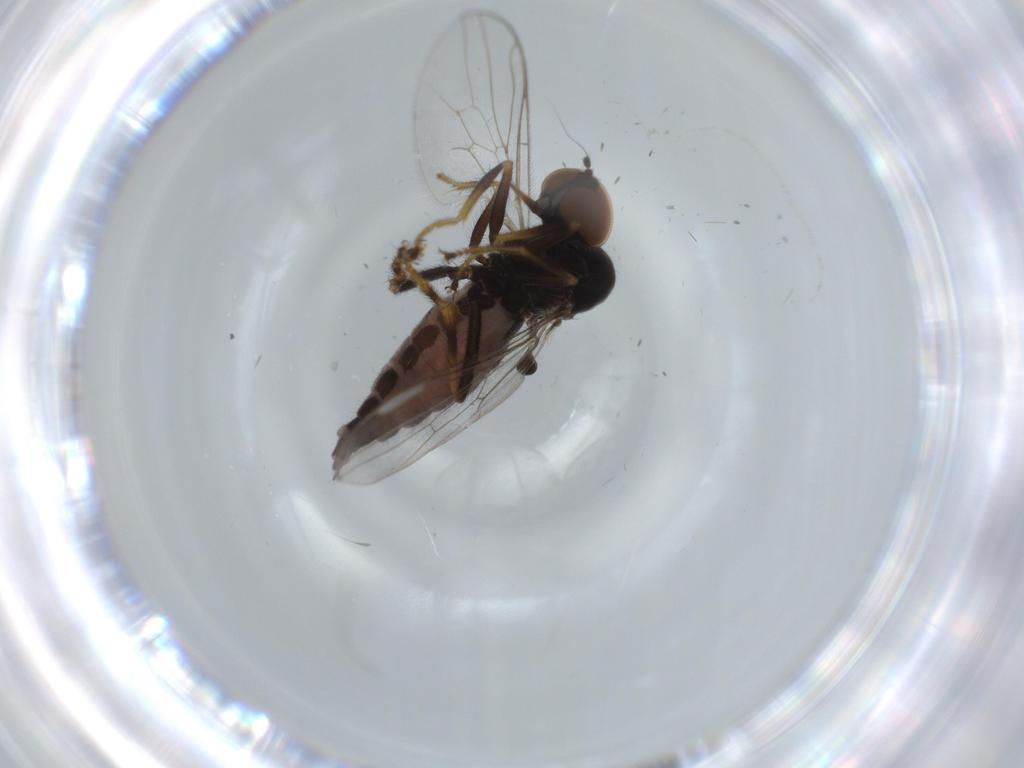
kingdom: Animalia
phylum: Arthropoda
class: Insecta
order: Diptera
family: Hybotidae
